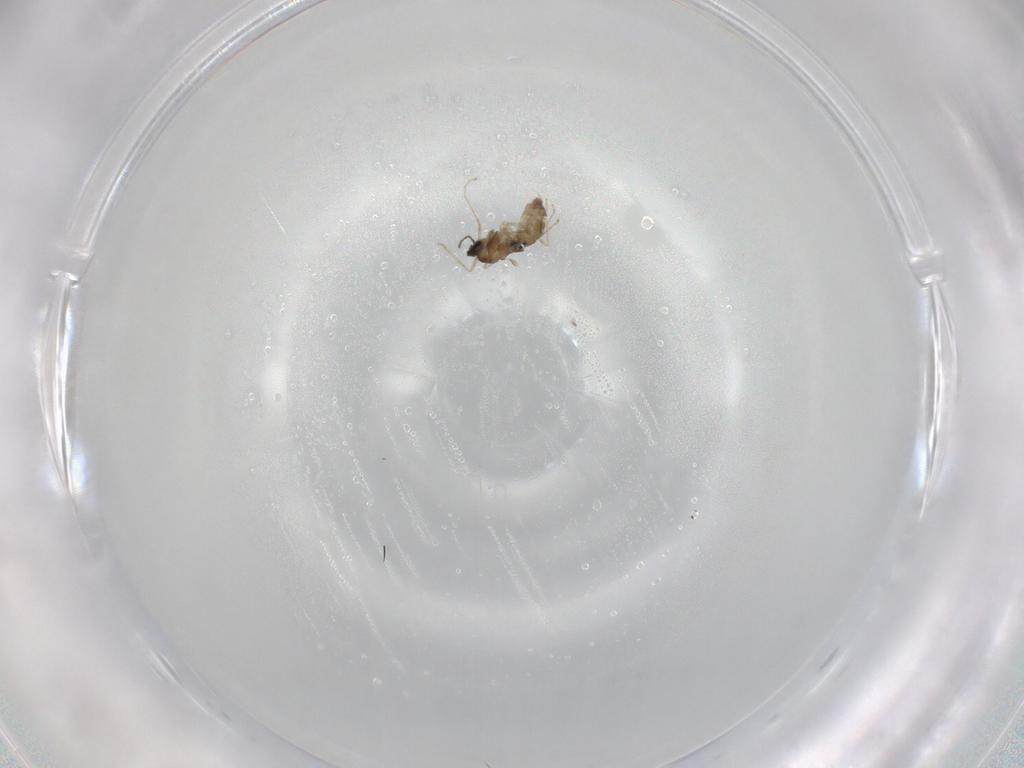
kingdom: Animalia
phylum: Arthropoda
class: Insecta
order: Diptera
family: Cecidomyiidae
